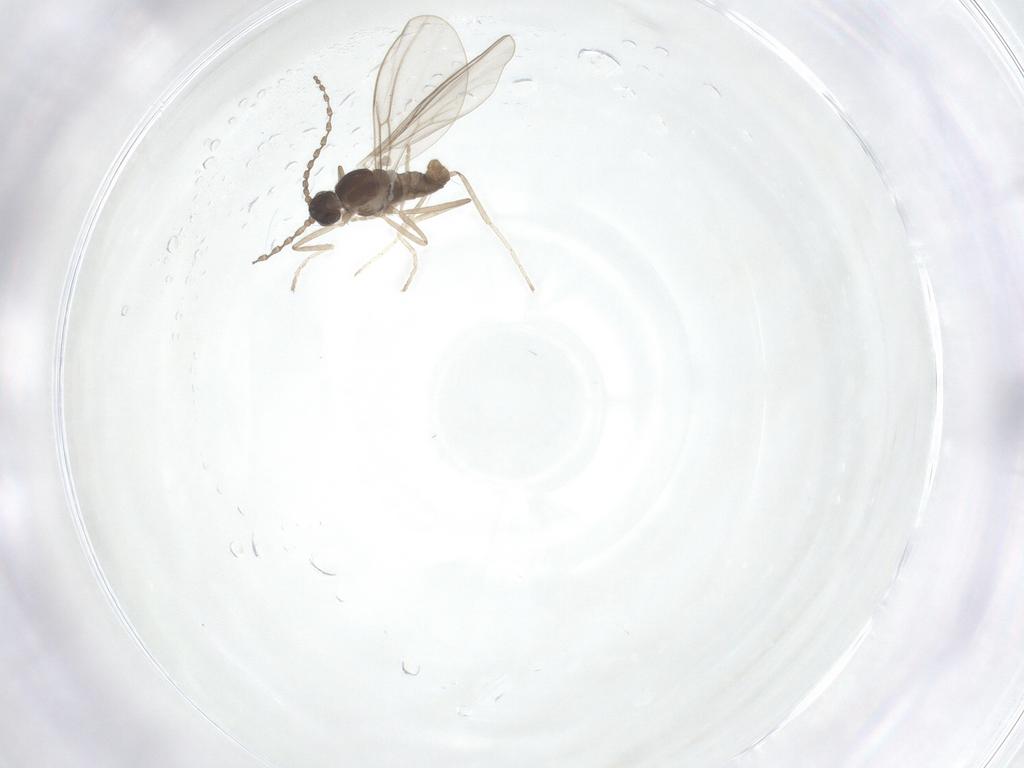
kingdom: Animalia
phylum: Arthropoda
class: Insecta
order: Diptera
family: Cecidomyiidae
